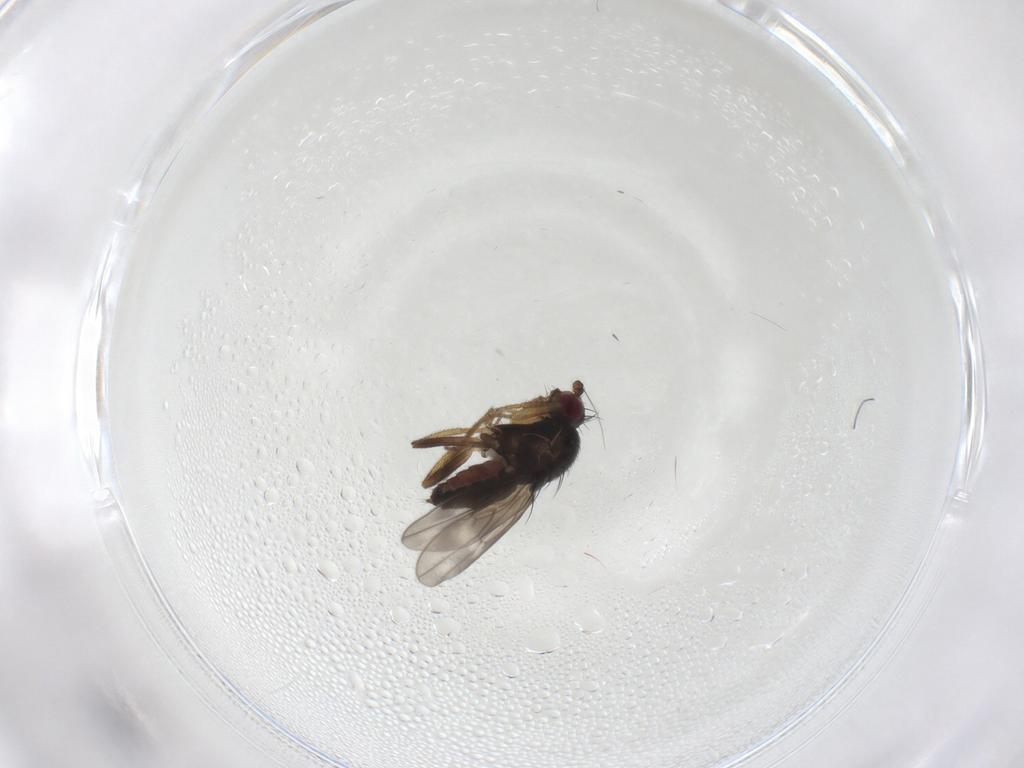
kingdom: Animalia
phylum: Arthropoda
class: Insecta
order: Diptera
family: Sphaeroceridae
